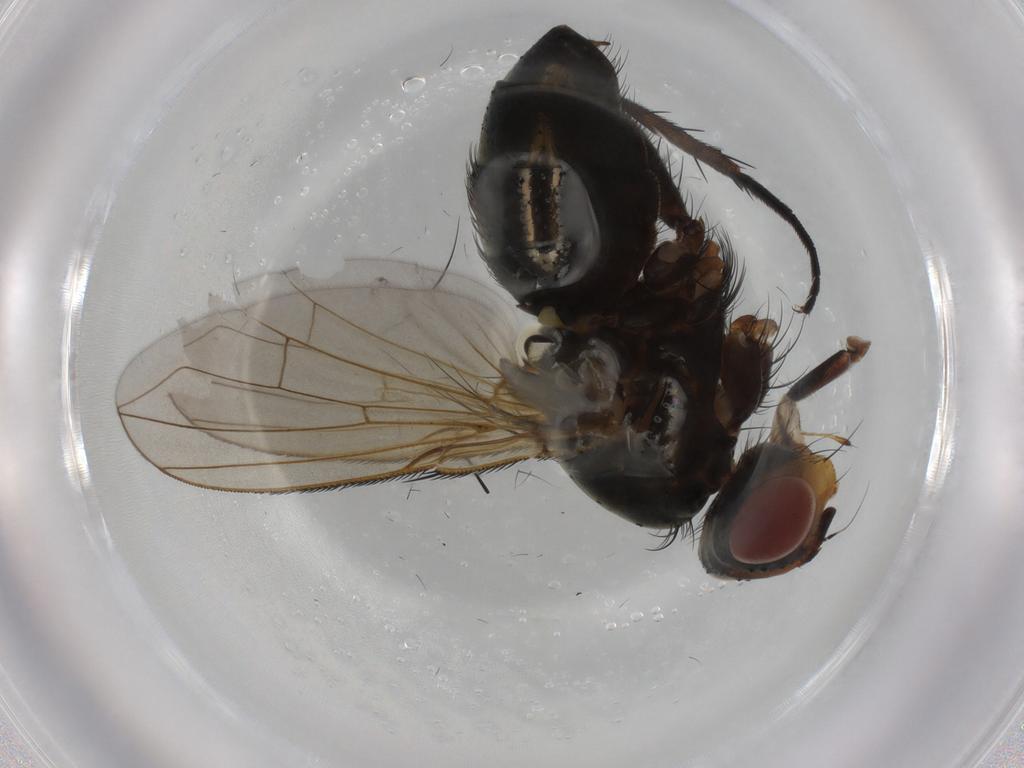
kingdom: Animalia
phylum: Arthropoda
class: Insecta
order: Diptera
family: Calliphoridae
